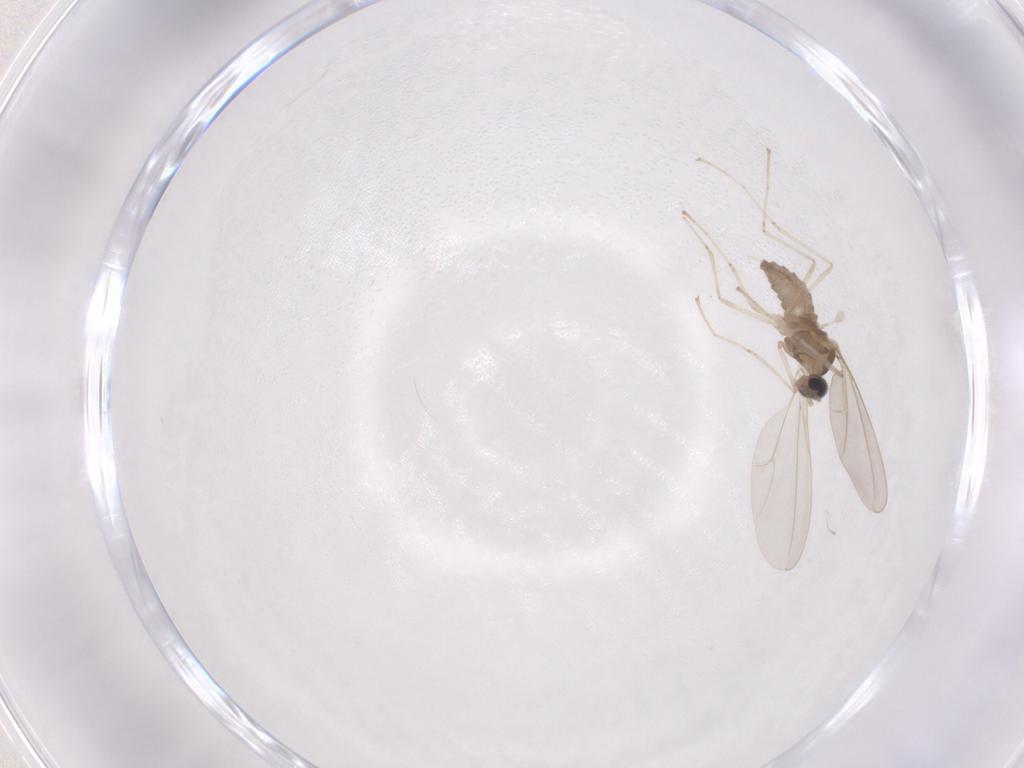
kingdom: Animalia
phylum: Arthropoda
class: Insecta
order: Diptera
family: Cecidomyiidae
